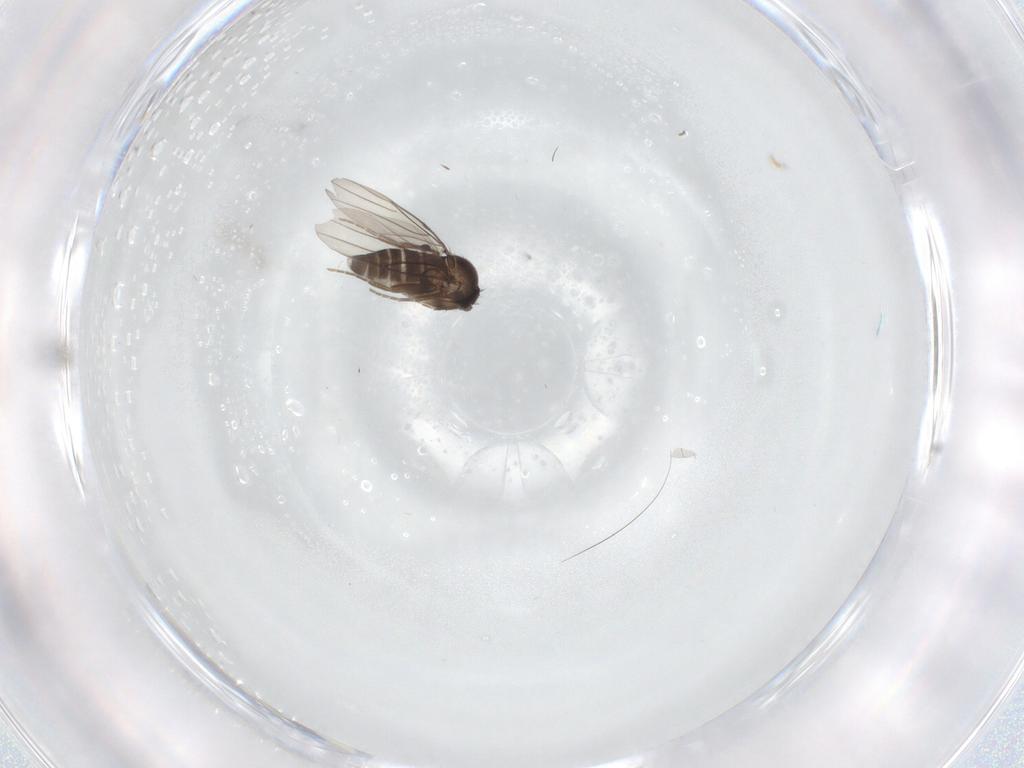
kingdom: Animalia
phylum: Arthropoda
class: Insecta
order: Diptera
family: Phoridae
